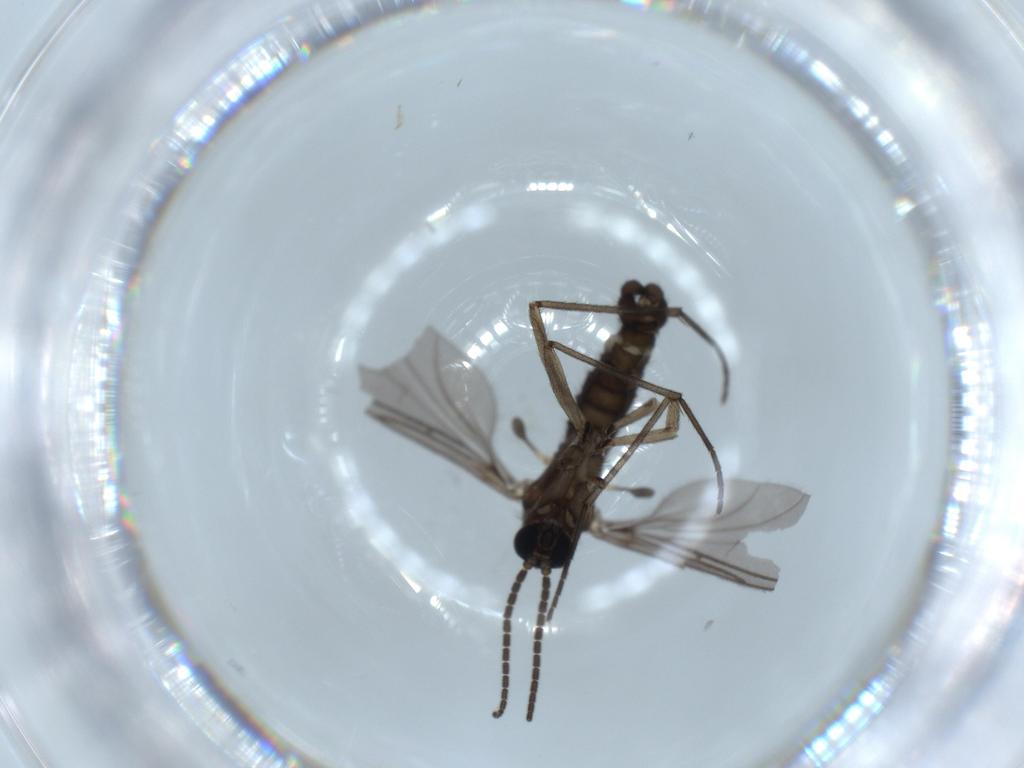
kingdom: Animalia
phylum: Arthropoda
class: Insecta
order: Diptera
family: Sciaridae
